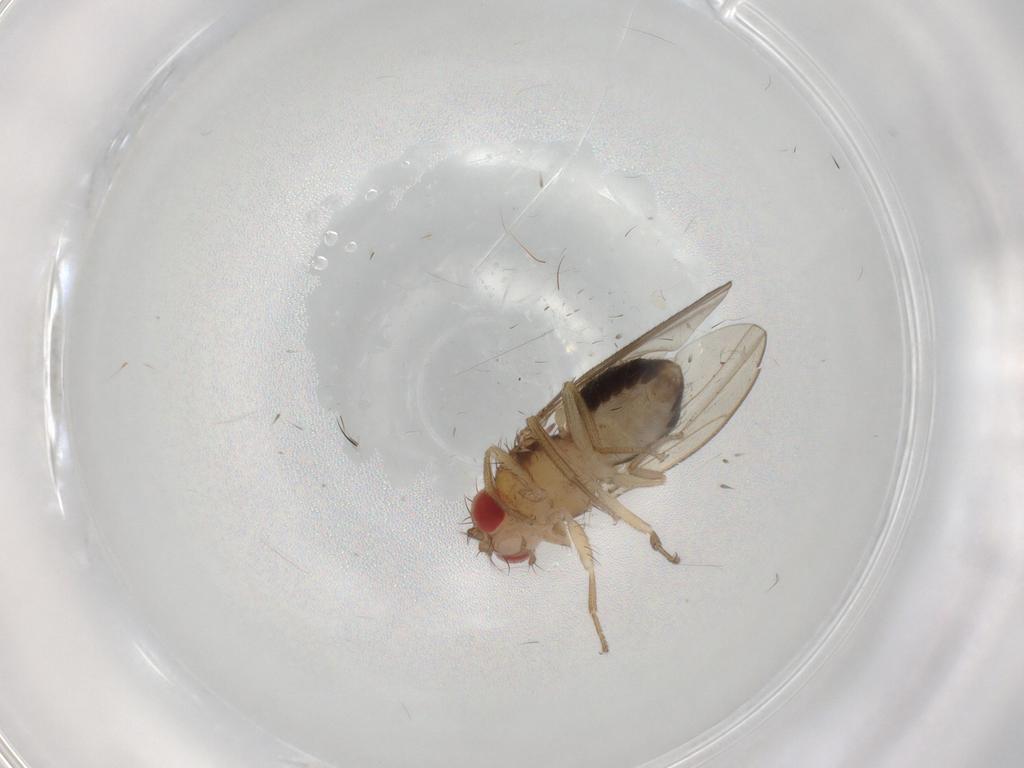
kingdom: Animalia
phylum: Arthropoda
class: Insecta
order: Diptera
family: Drosophilidae
